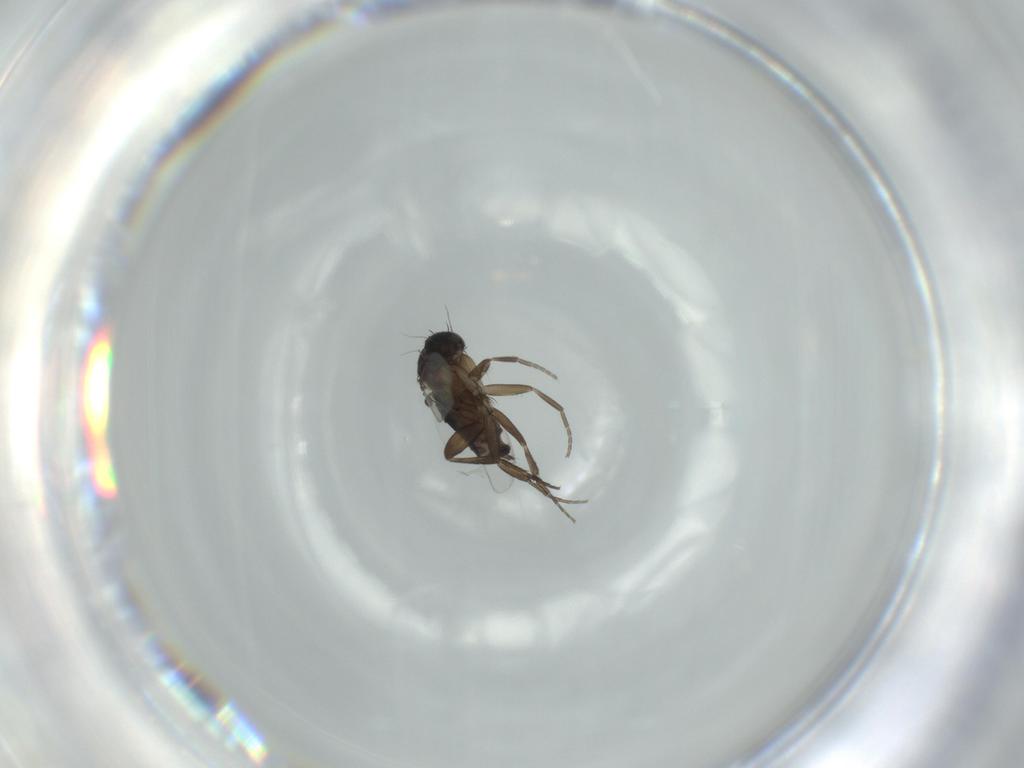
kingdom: Animalia
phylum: Arthropoda
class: Insecta
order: Diptera
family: Phoridae
